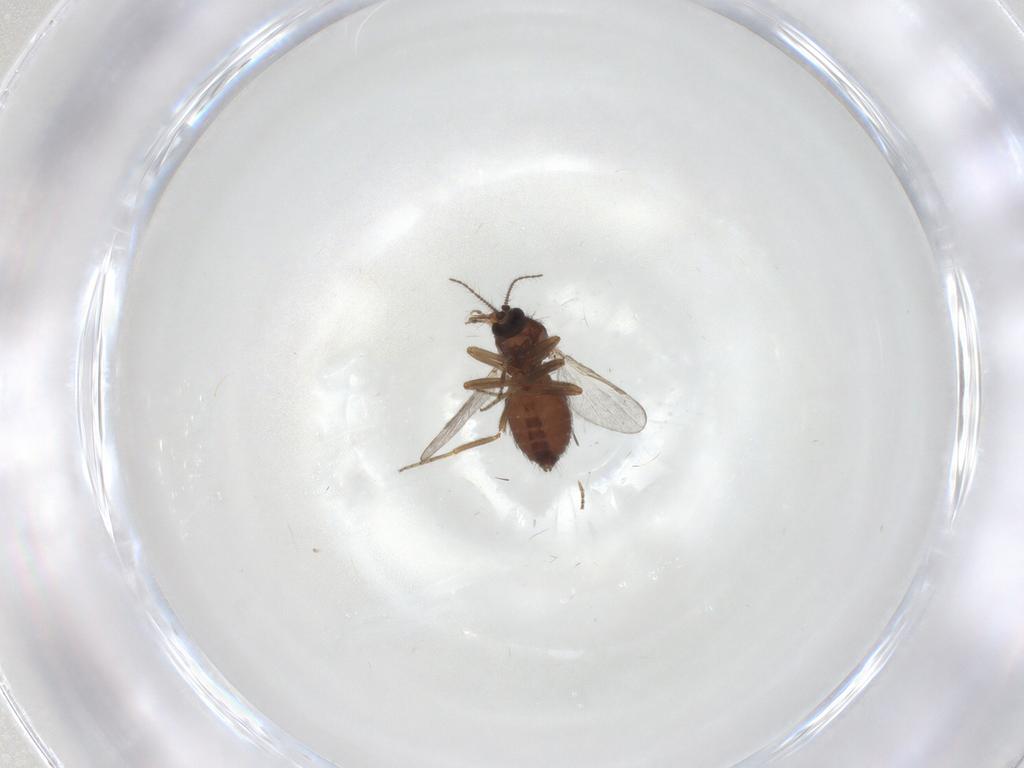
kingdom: Animalia
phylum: Arthropoda
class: Insecta
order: Diptera
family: Ceratopogonidae
